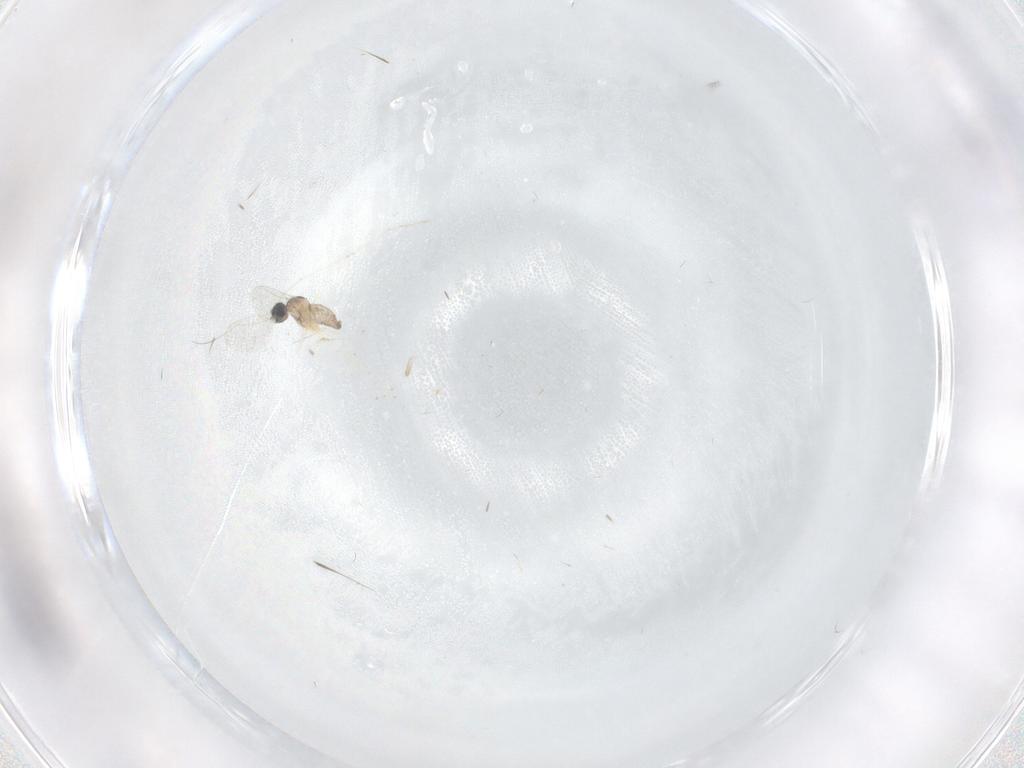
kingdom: Animalia
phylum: Arthropoda
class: Insecta
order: Diptera
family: Cecidomyiidae
